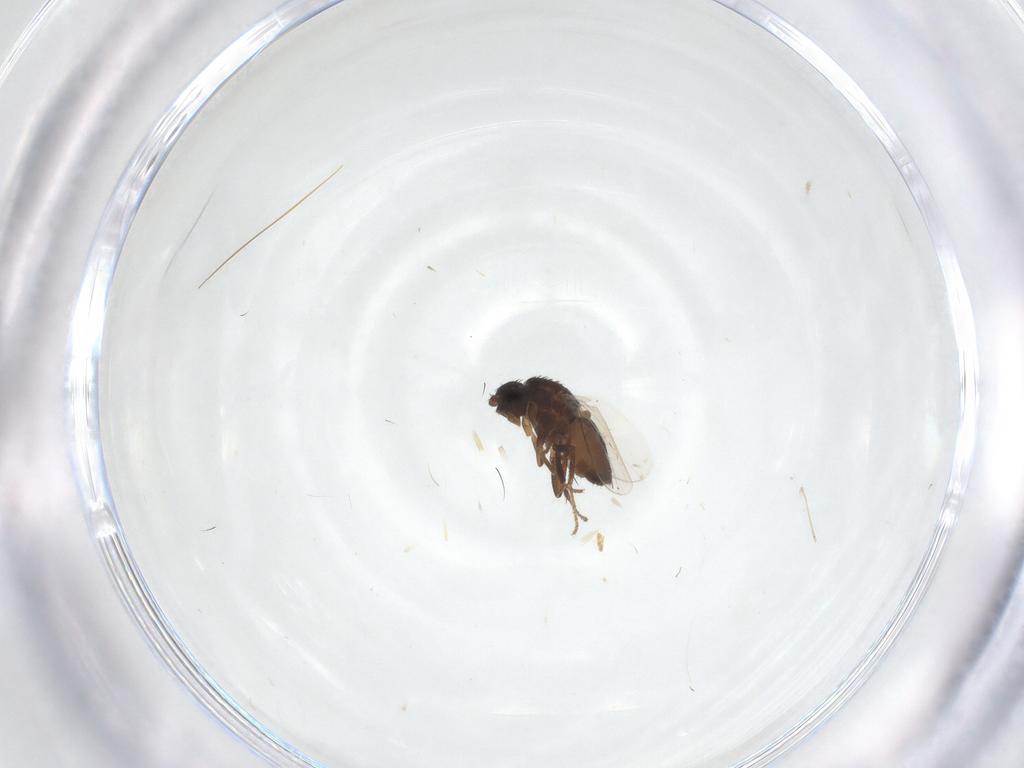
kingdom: Animalia
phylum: Arthropoda
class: Insecta
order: Diptera
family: Sphaeroceridae
